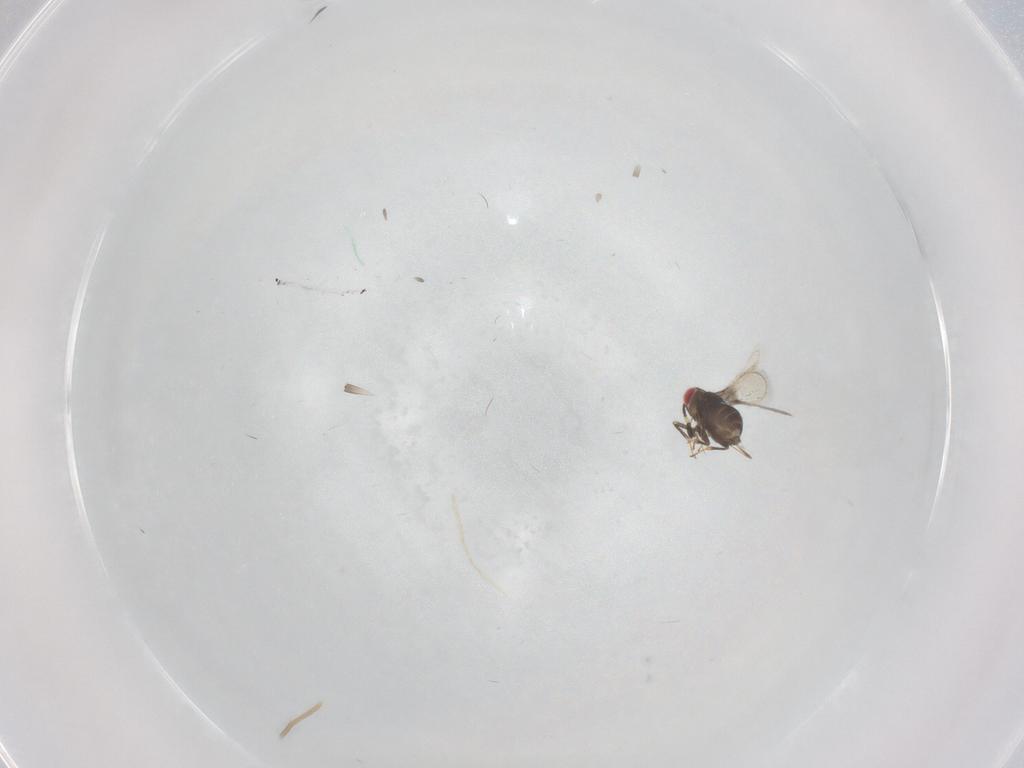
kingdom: Animalia
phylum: Arthropoda
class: Insecta
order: Hymenoptera
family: Azotidae
